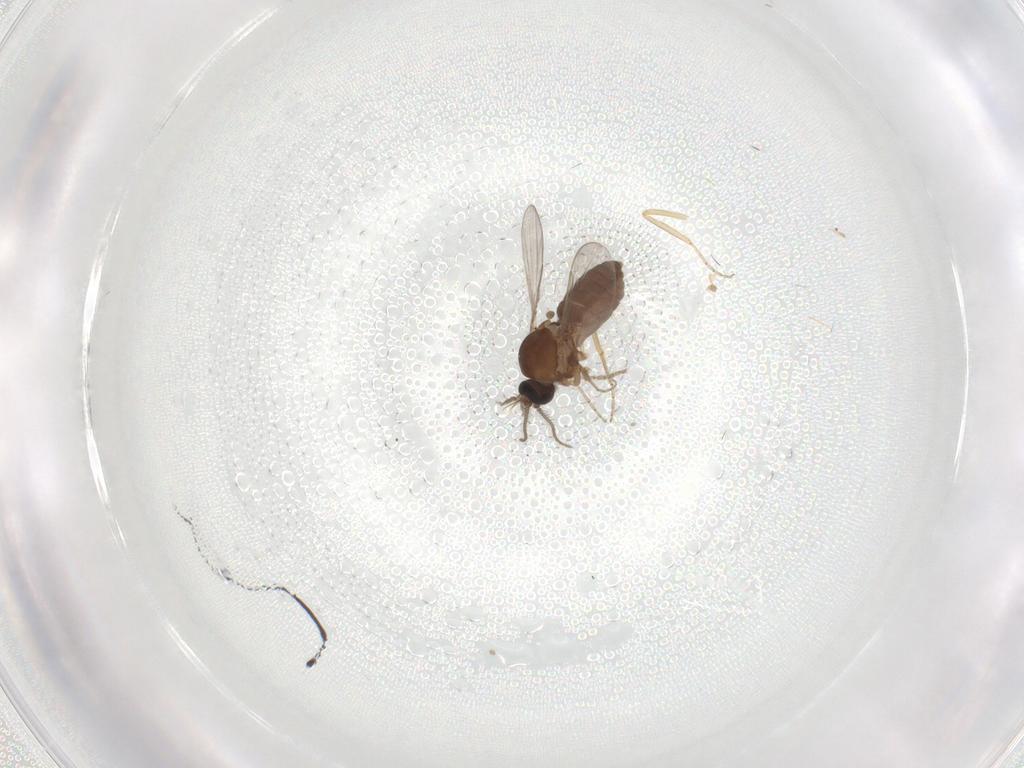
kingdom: Animalia
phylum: Arthropoda
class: Insecta
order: Diptera
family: Ceratopogonidae
